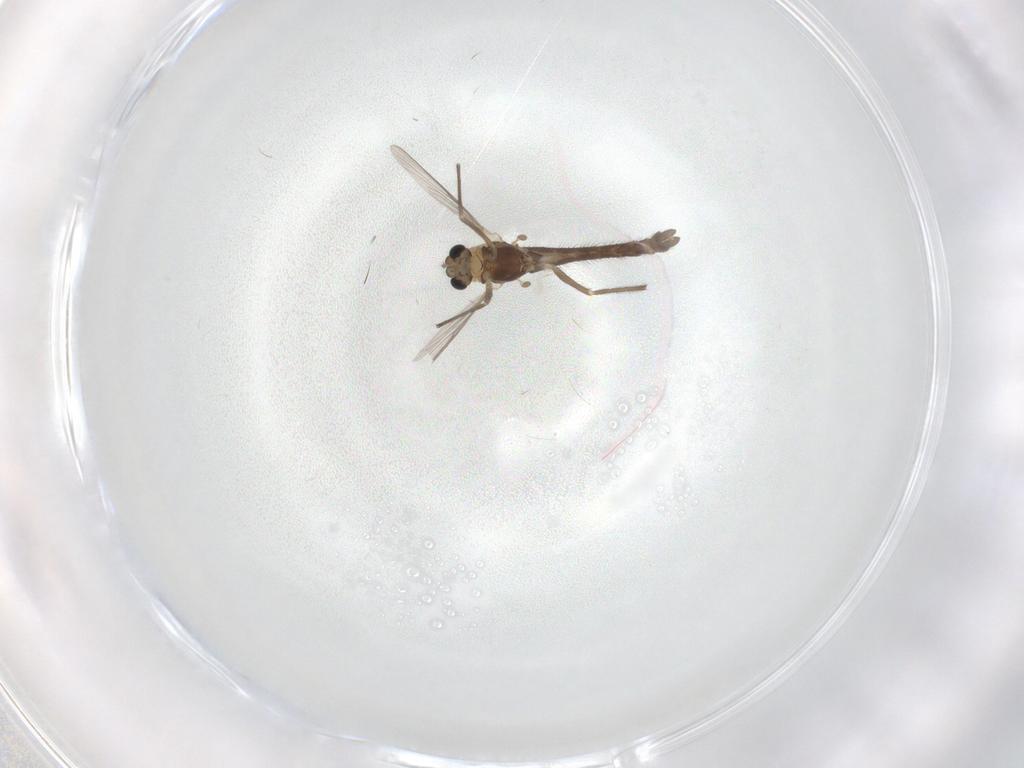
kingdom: Animalia
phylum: Arthropoda
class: Insecta
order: Diptera
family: Chironomidae
